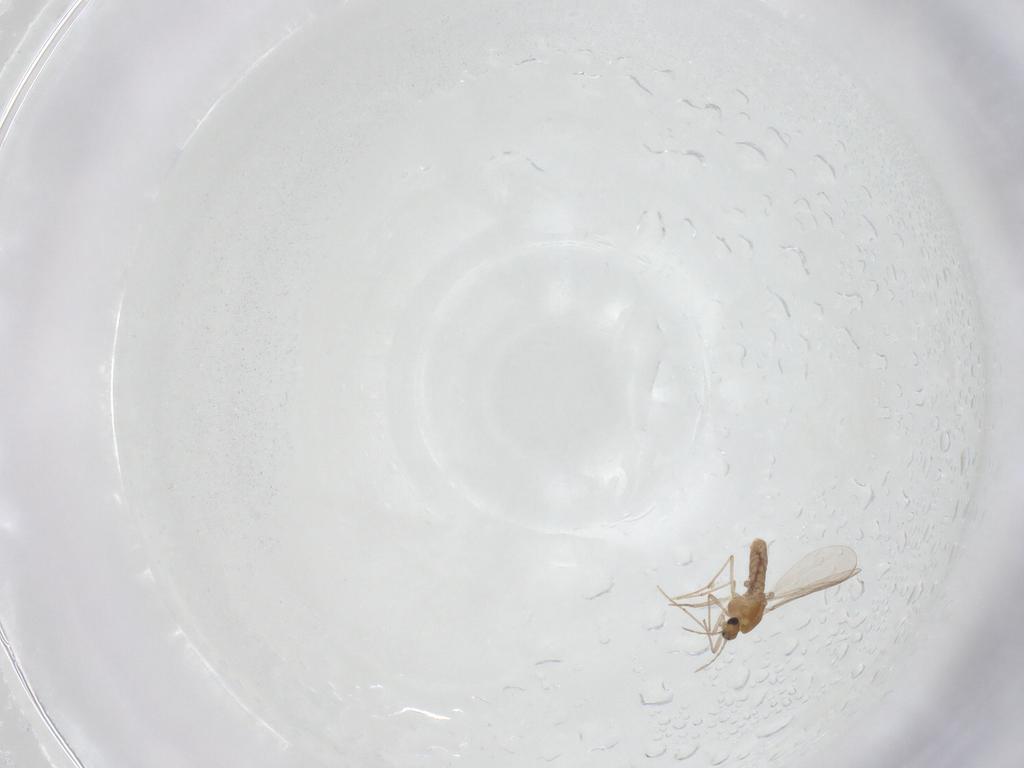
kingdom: Animalia
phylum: Arthropoda
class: Insecta
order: Diptera
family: Chironomidae
